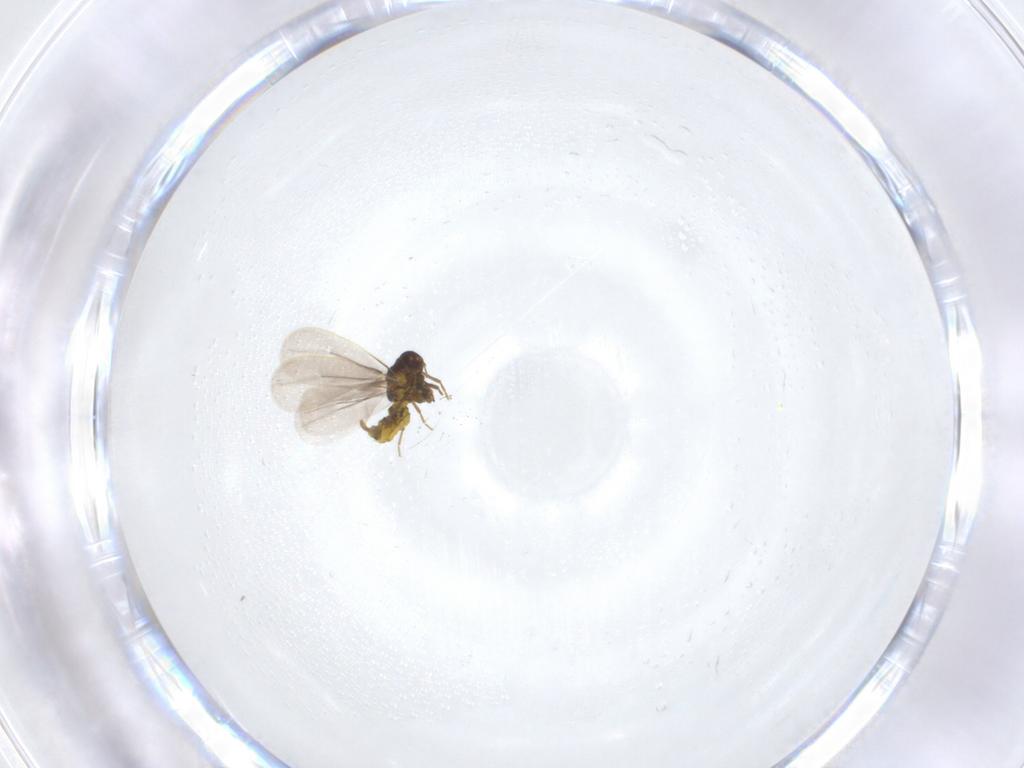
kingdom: Animalia
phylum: Arthropoda
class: Insecta
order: Hemiptera
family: Aleyrodidae
